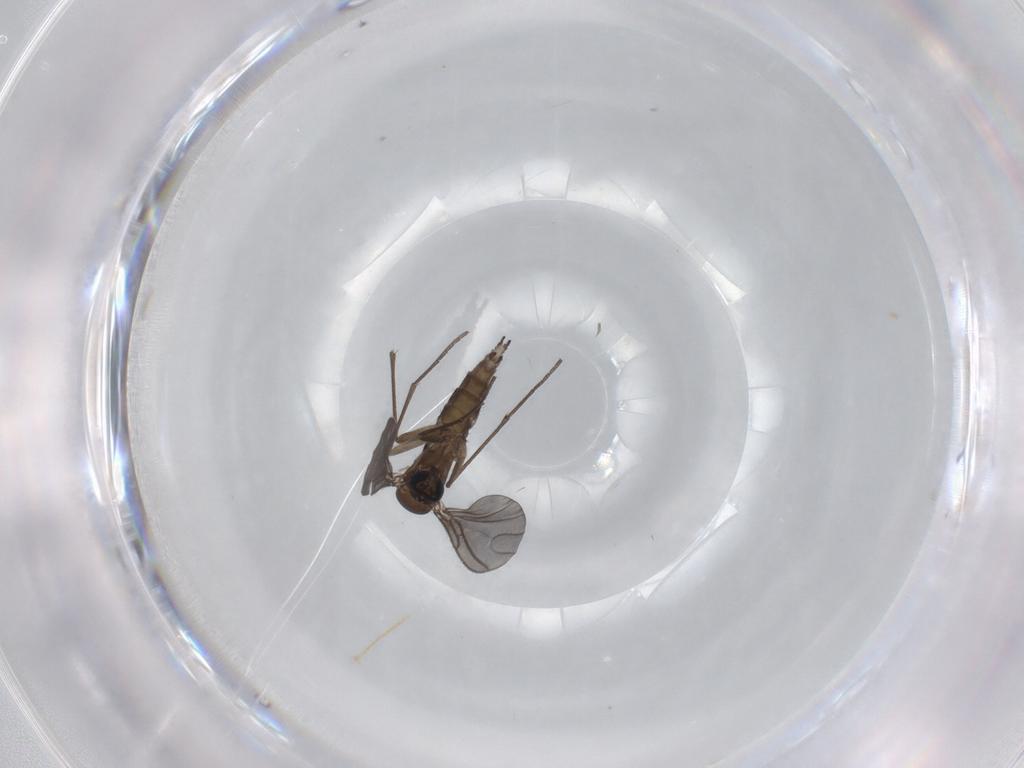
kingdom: Animalia
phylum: Arthropoda
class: Insecta
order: Diptera
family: Sciaridae
